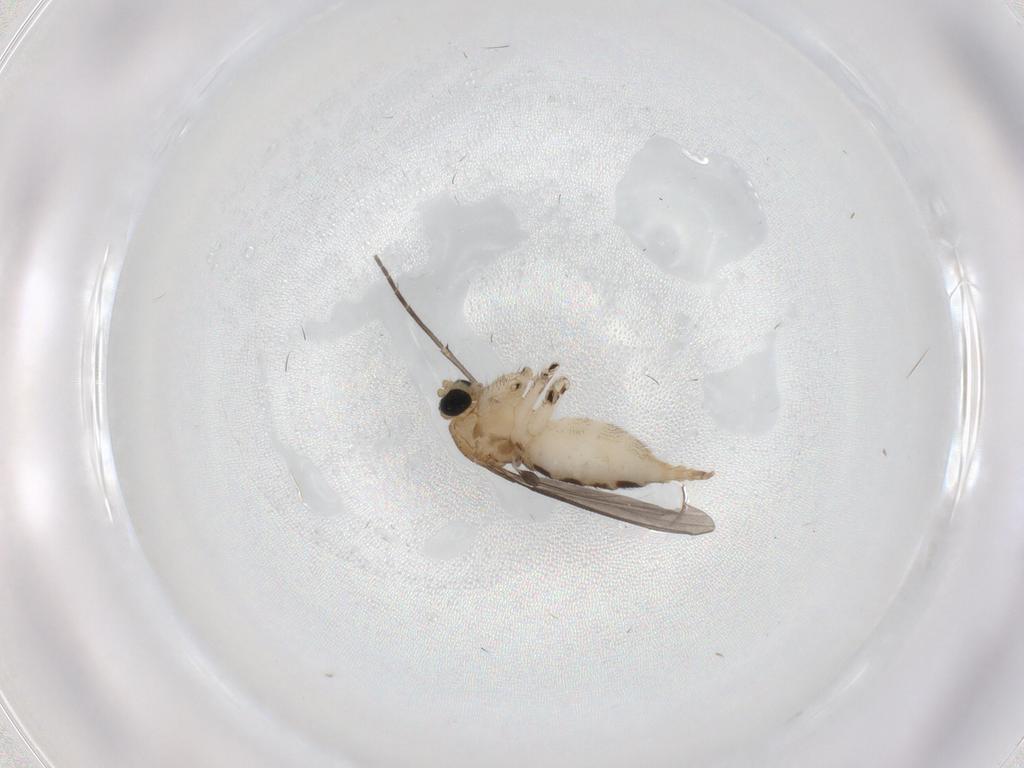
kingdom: Animalia
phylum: Arthropoda
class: Insecta
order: Diptera
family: Sciaridae
